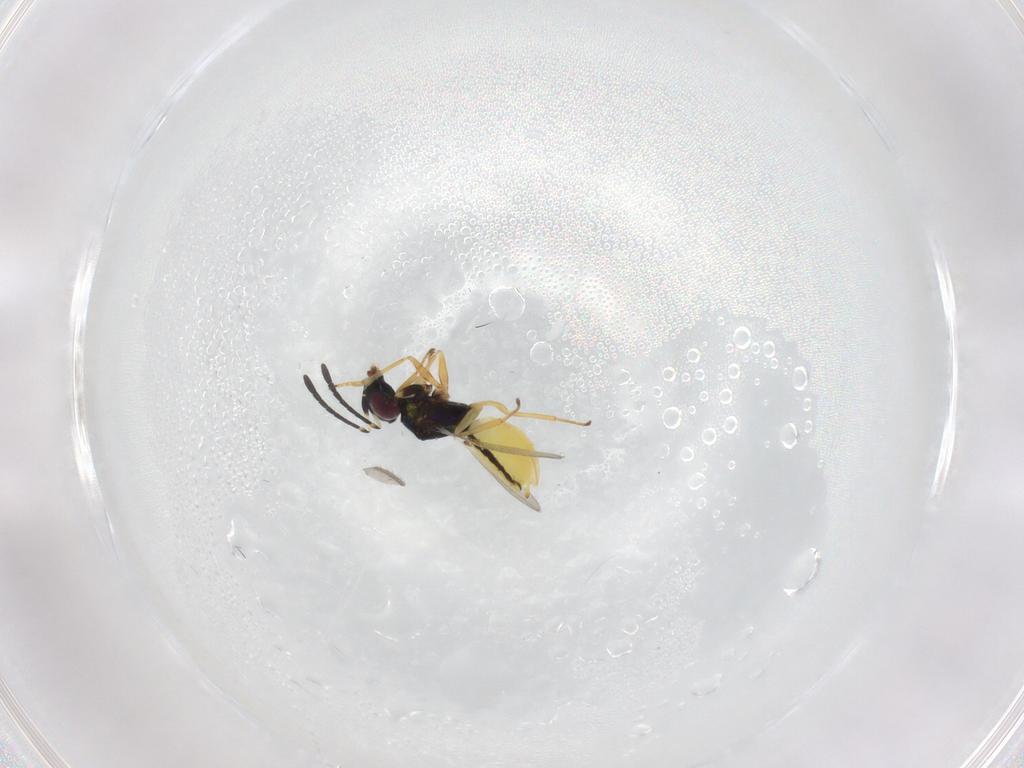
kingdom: Animalia
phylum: Arthropoda
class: Insecta
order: Hymenoptera
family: Encyrtidae
